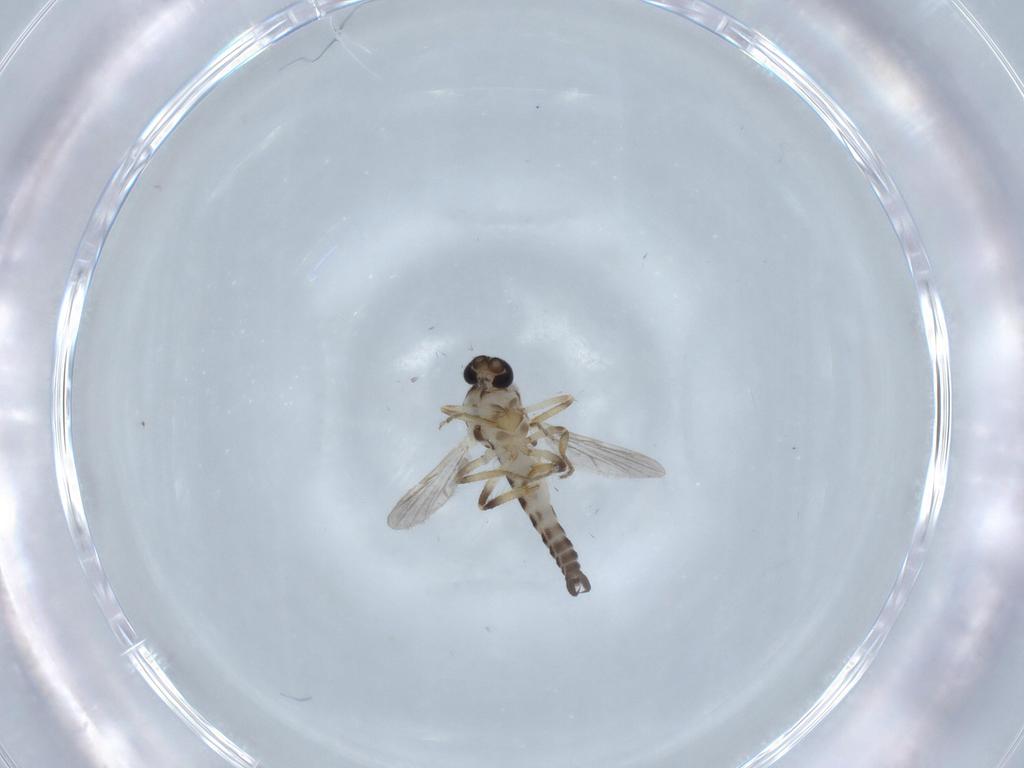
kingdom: Animalia
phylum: Arthropoda
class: Insecta
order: Diptera
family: Ceratopogonidae
